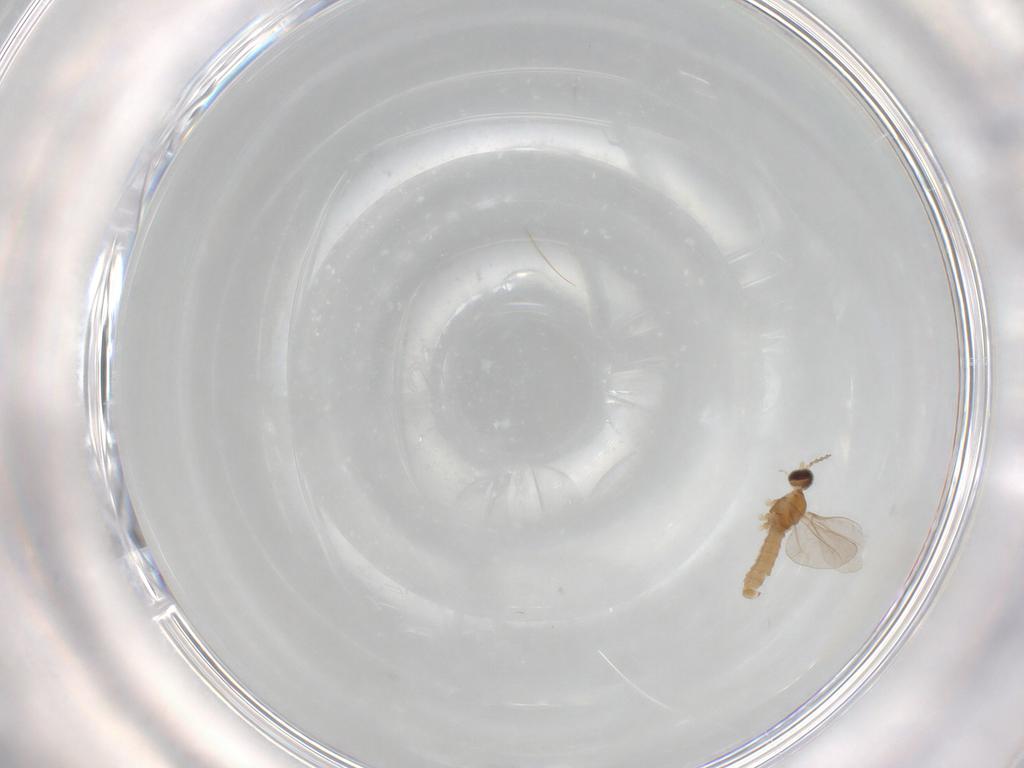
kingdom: Animalia
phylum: Arthropoda
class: Insecta
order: Diptera
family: Cecidomyiidae
